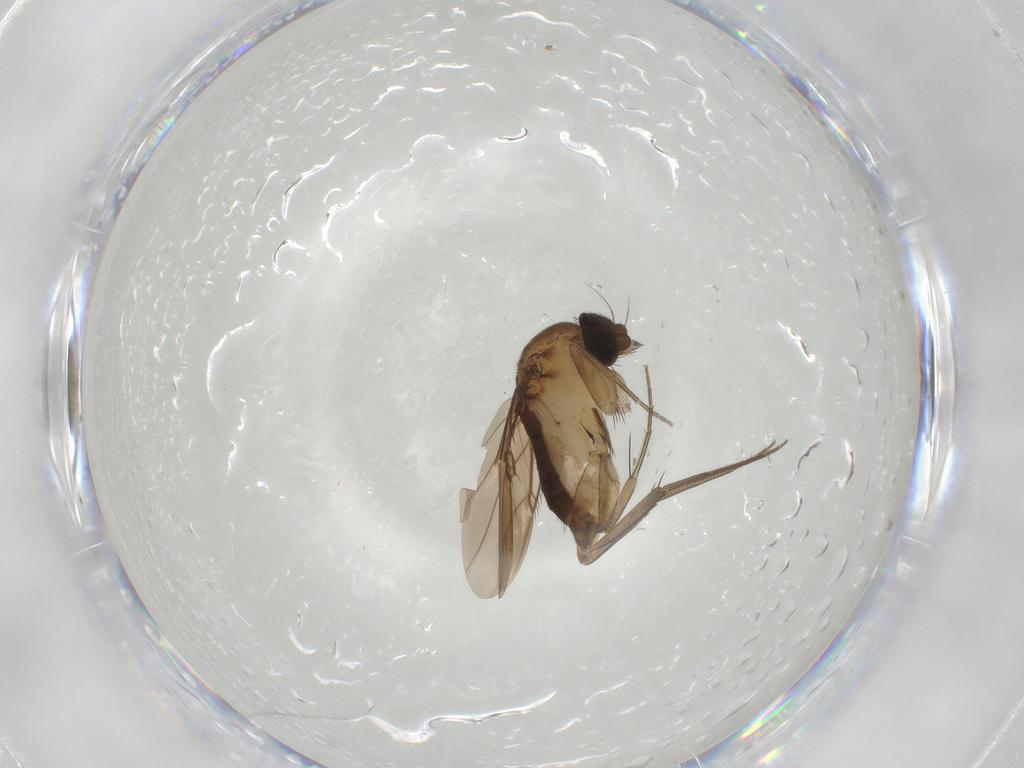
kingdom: Animalia
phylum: Arthropoda
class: Insecta
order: Diptera
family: Phoridae
